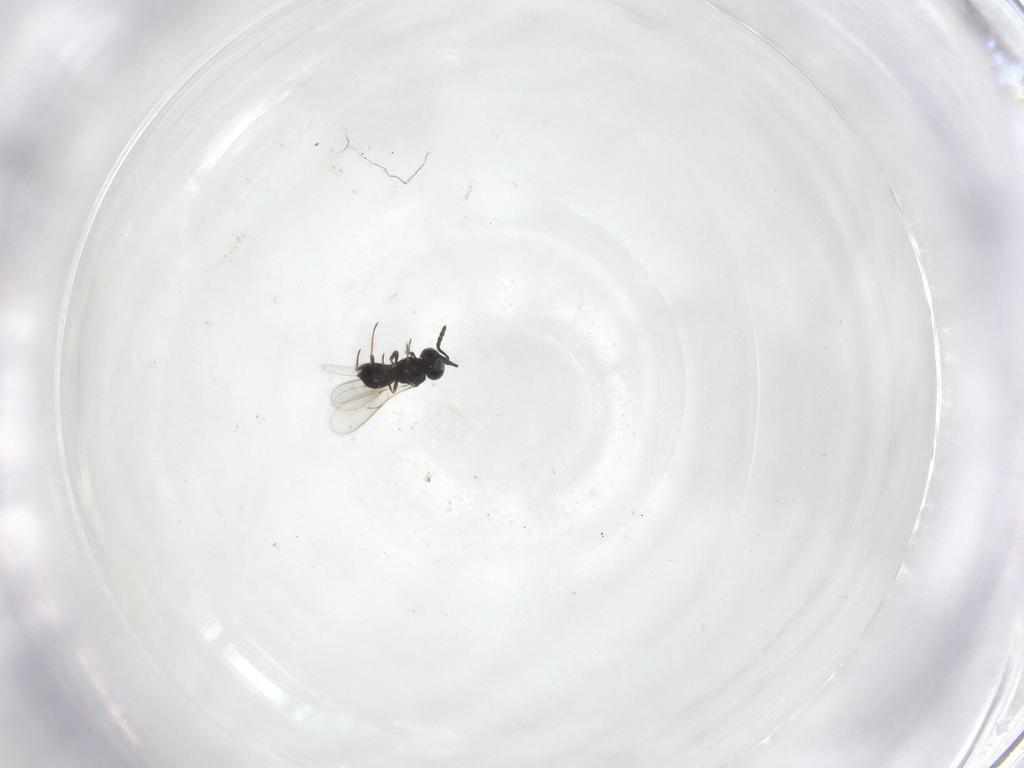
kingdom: Animalia
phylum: Arthropoda
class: Insecta
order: Hymenoptera
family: Scelionidae
